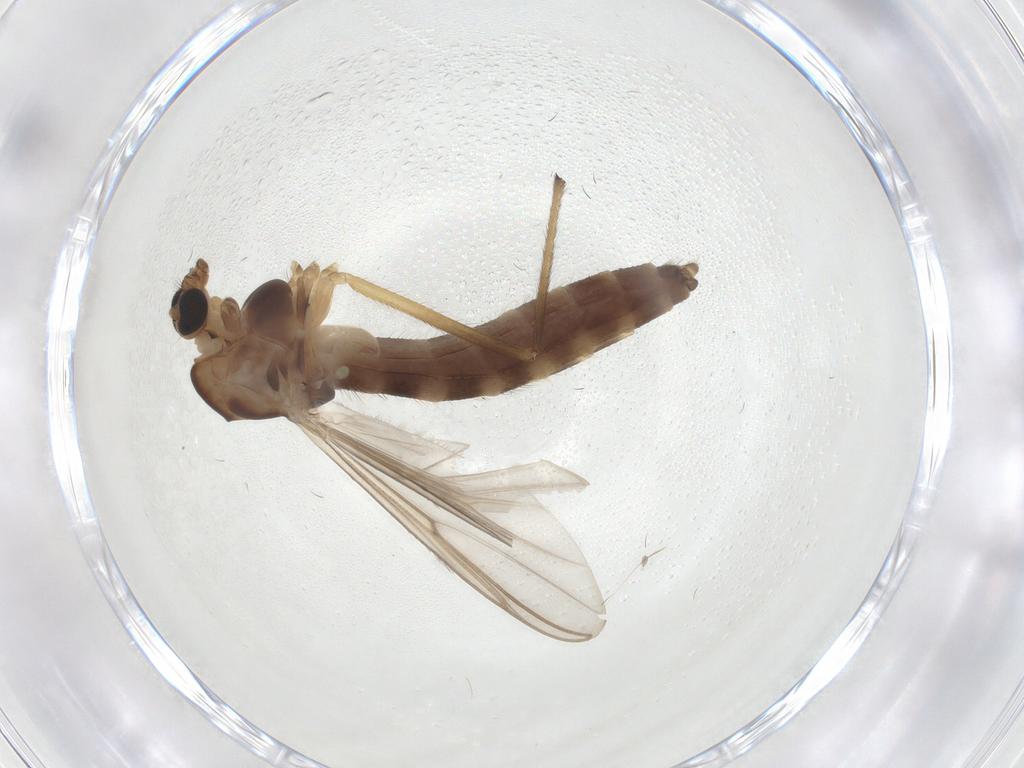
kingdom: Animalia
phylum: Arthropoda
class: Insecta
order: Diptera
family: Chironomidae
